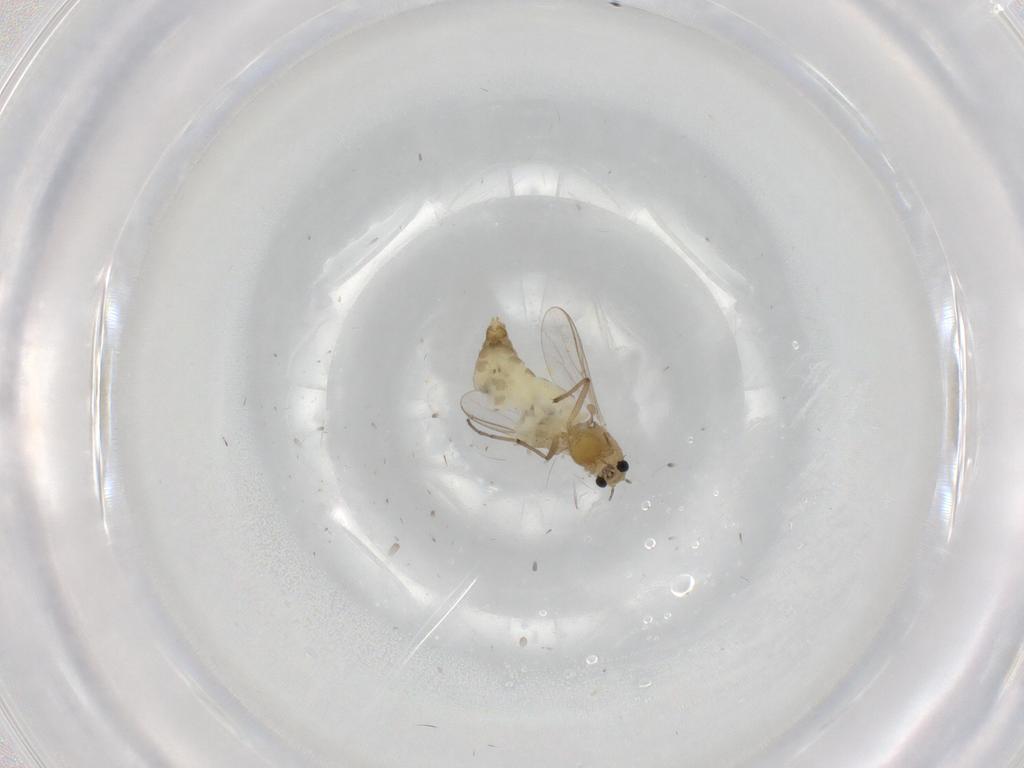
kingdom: Animalia
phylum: Arthropoda
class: Insecta
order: Diptera
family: Chironomidae
